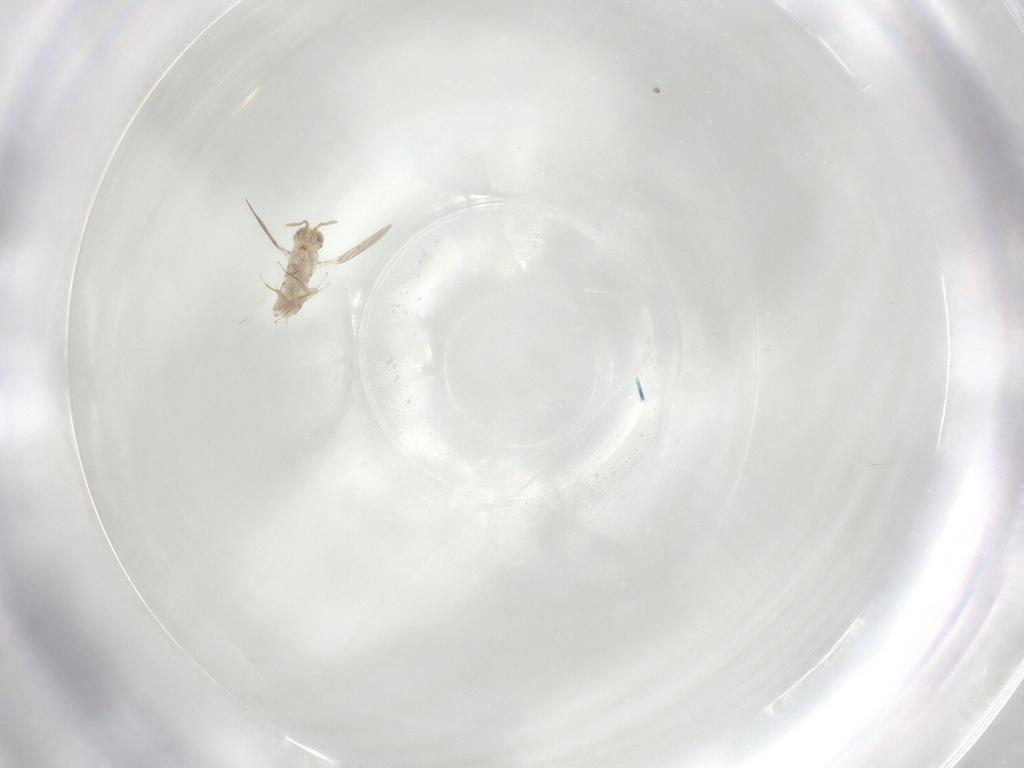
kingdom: Animalia
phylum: Arthropoda
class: Insecta
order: Hymenoptera
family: Aphelinidae
